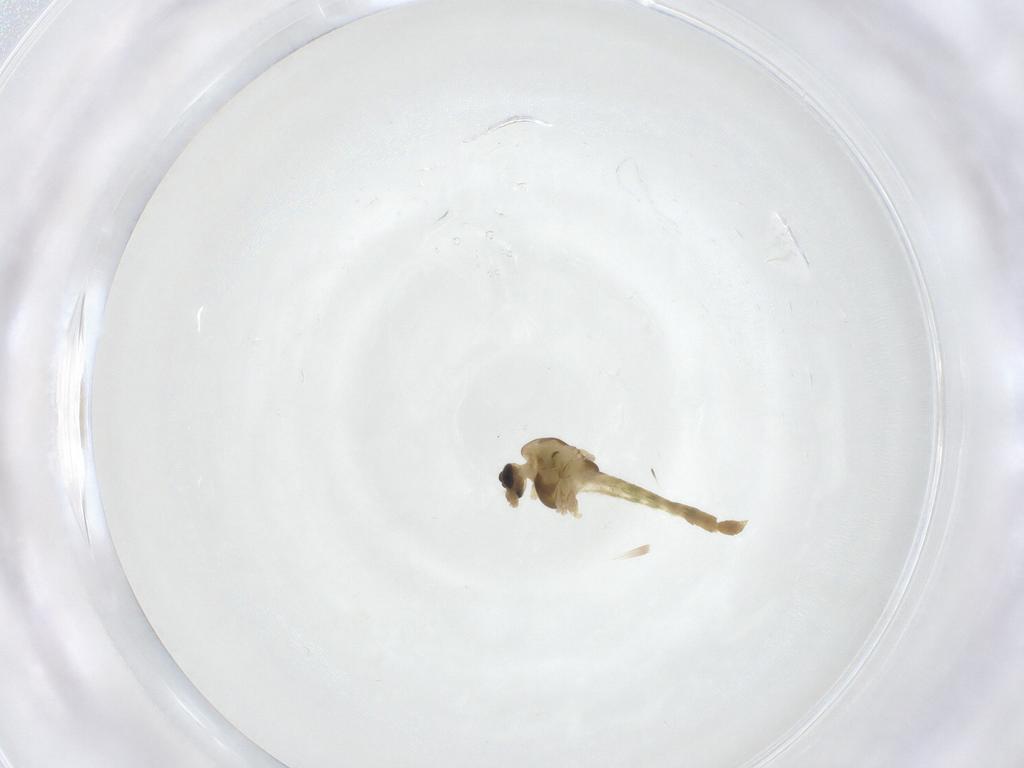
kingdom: Animalia
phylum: Arthropoda
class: Insecta
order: Diptera
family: Chironomidae
